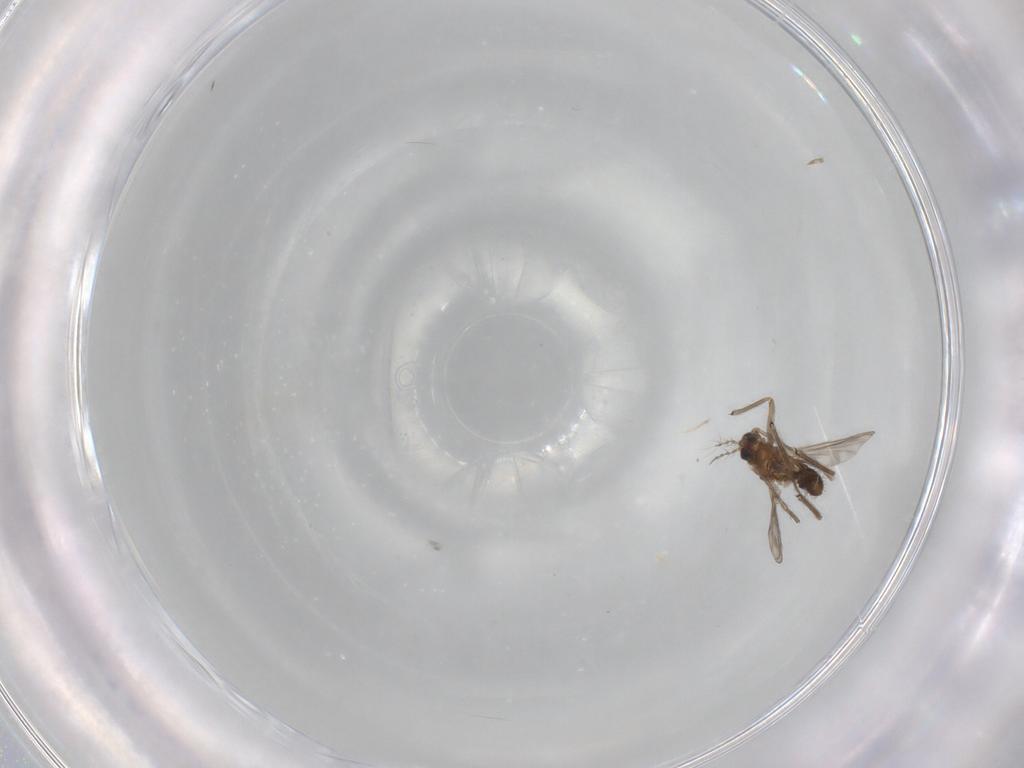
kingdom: Animalia
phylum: Arthropoda
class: Insecta
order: Diptera
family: Chironomidae
